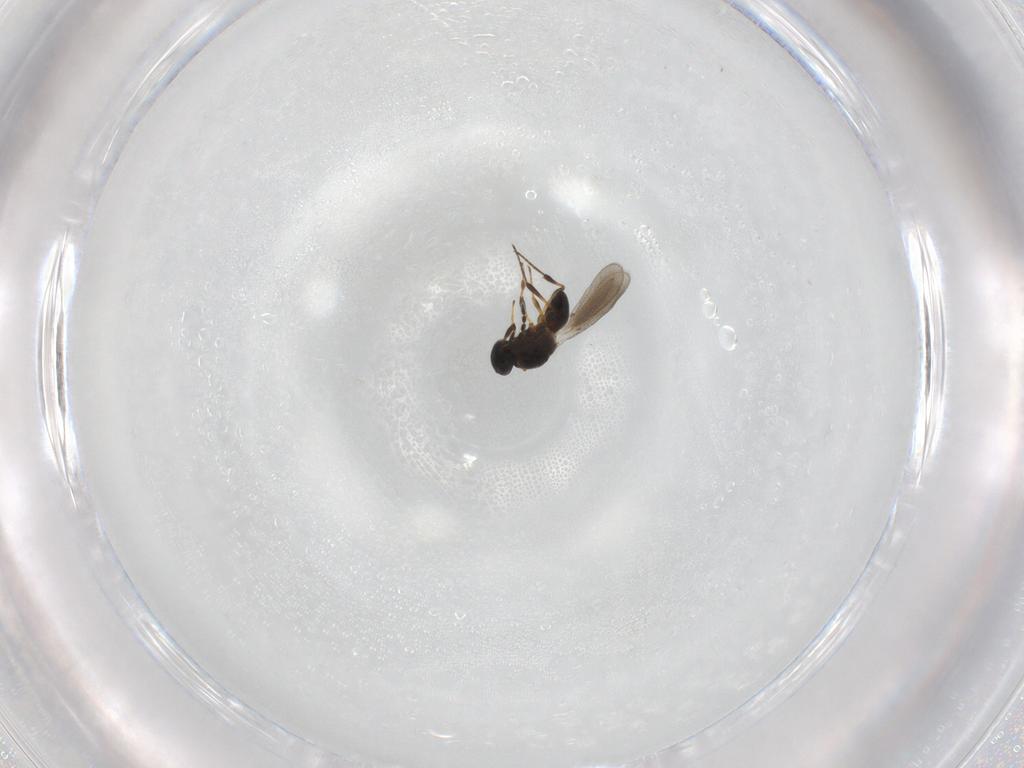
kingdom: Animalia
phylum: Arthropoda
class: Insecta
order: Hymenoptera
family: Platygastridae
